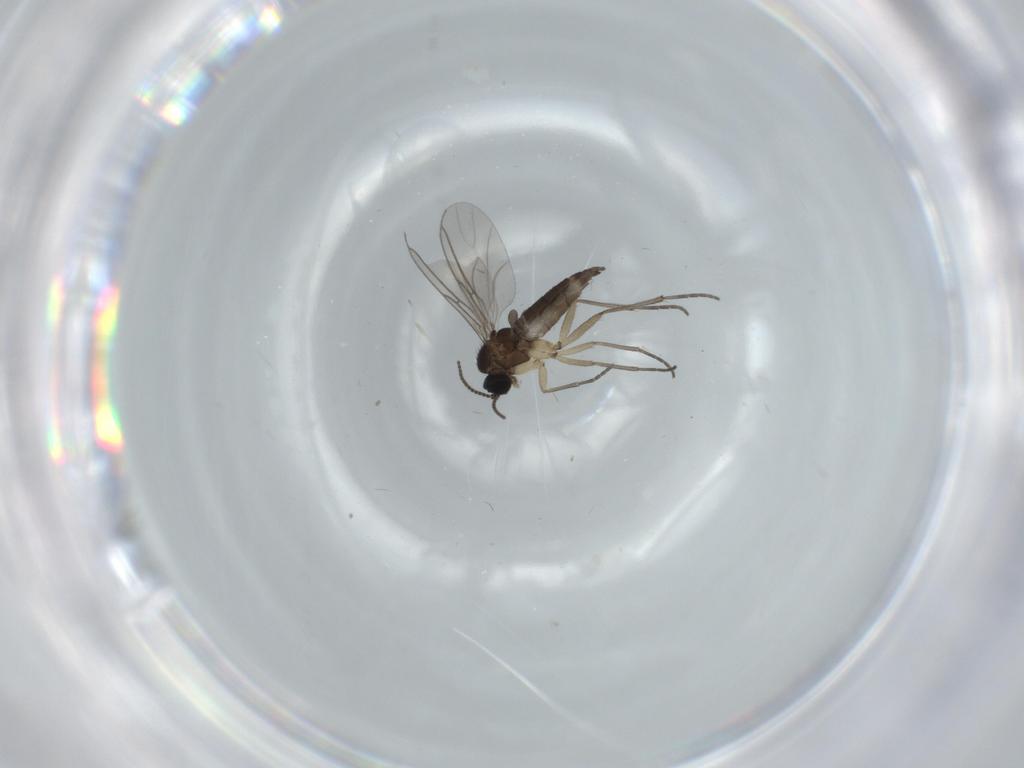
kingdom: Animalia
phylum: Arthropoda
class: Insecta
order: Diptera
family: Sciaridae
